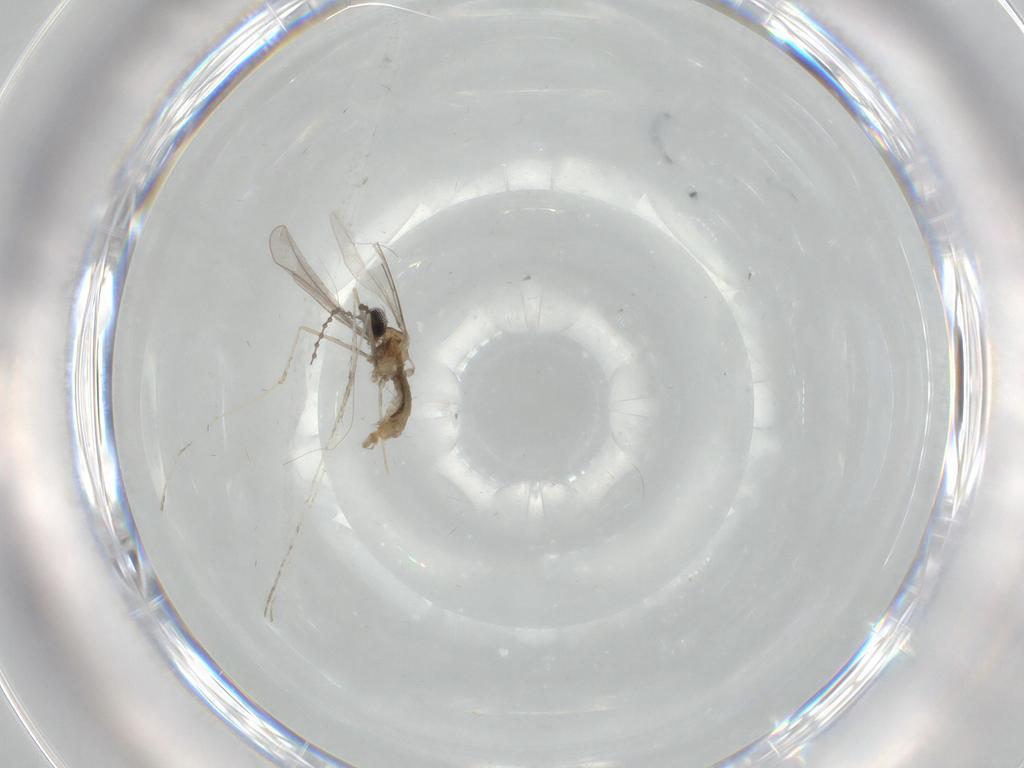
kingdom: Animalia
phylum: Arthropoda
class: Insecta
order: Diptera
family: Cecidomyiidae
